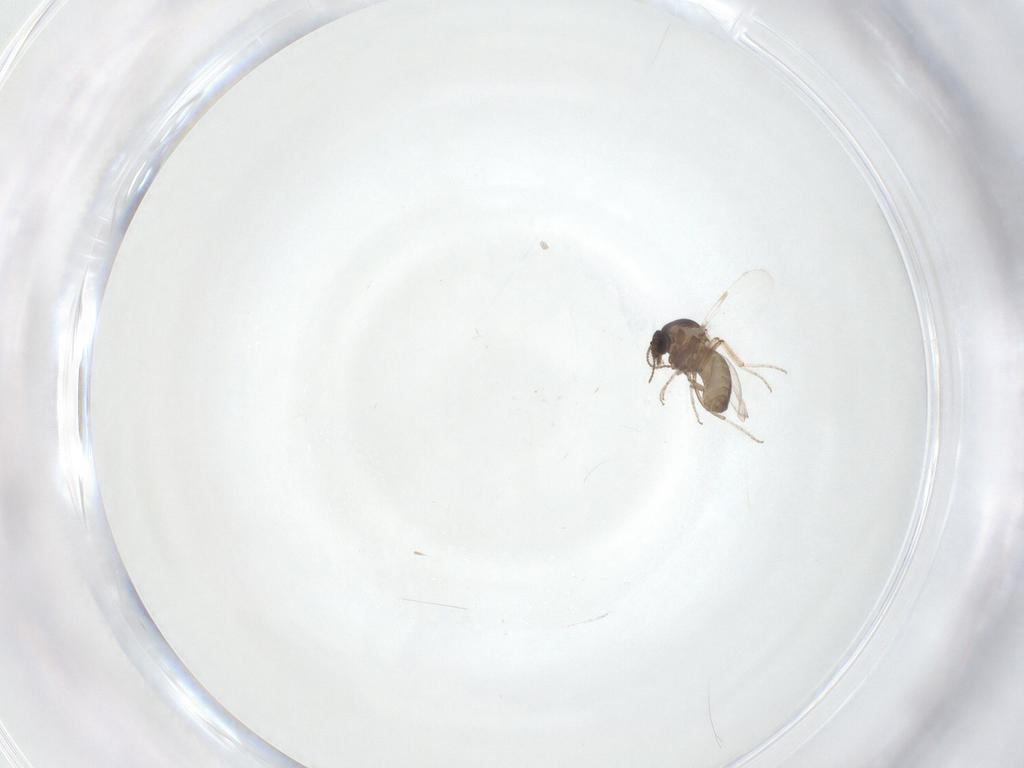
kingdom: Animalia
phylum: Arthropoda
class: Insecta
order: Diptera
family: Ceratopogonidae
